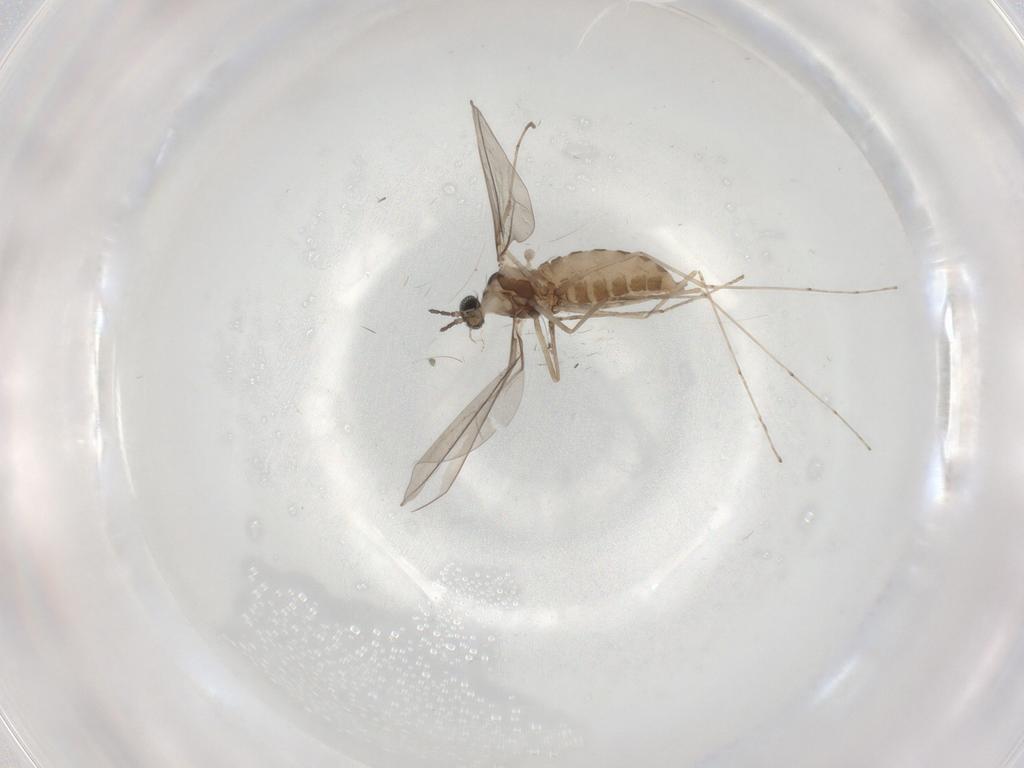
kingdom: Animalia
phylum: Arthropoda
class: Insecta
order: Diptera
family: Cecidomyiidae
